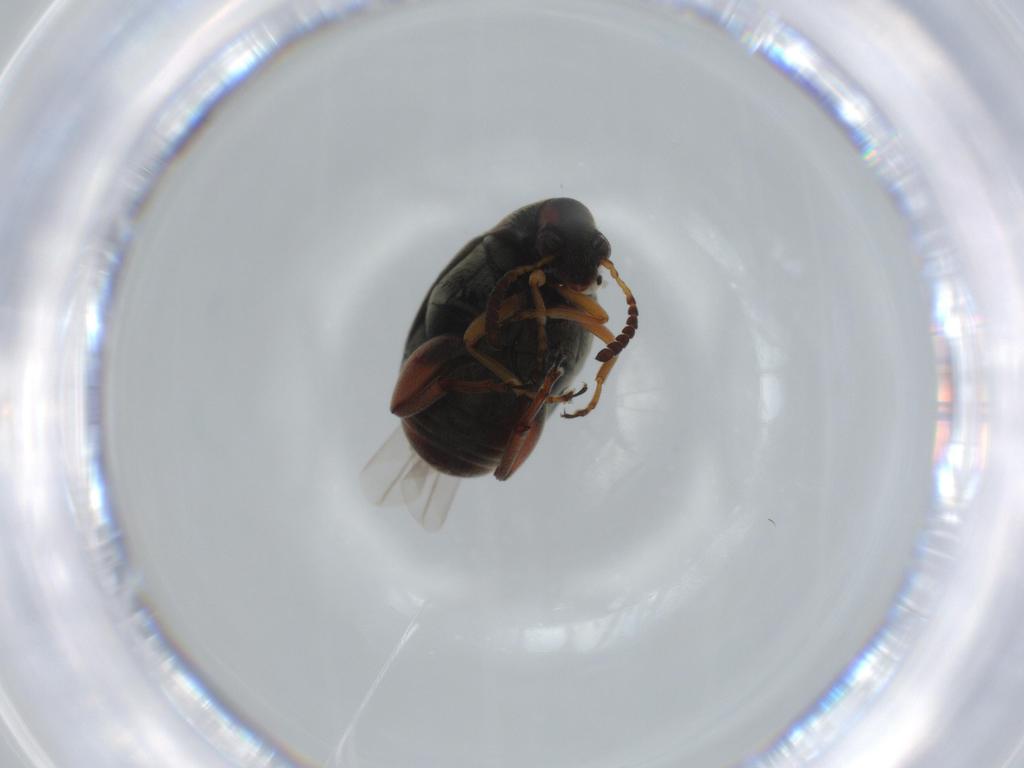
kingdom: Animalia
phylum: Arthropoda
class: Insecta
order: Coleoptera
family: Chrysomelidae
